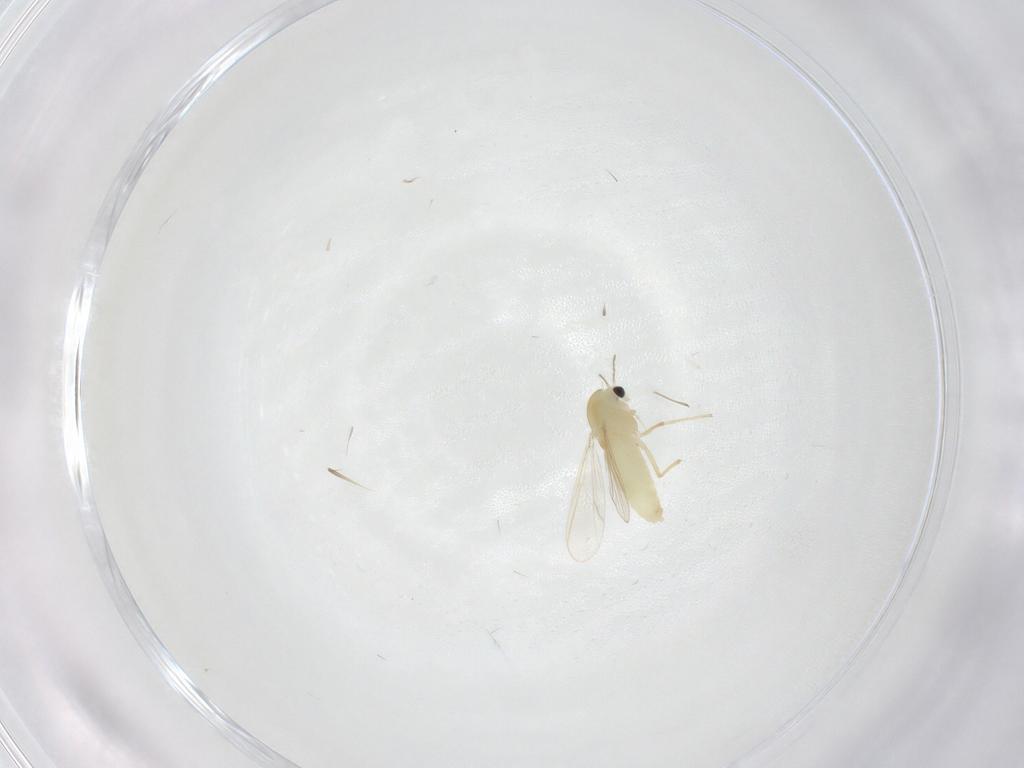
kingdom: Animalia
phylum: Arthropoda
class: Insecta
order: Diptera
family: Chironomidae
